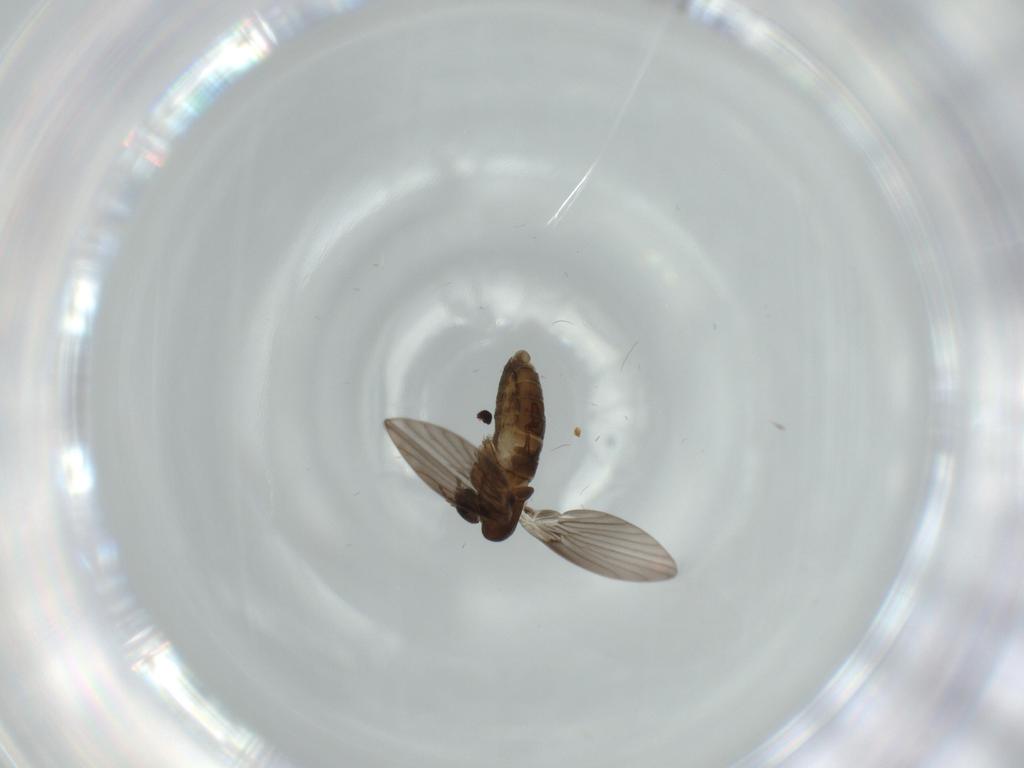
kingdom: Animalia
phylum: Arthropoda
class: Insecta
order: Diptera
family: Psychodidae
